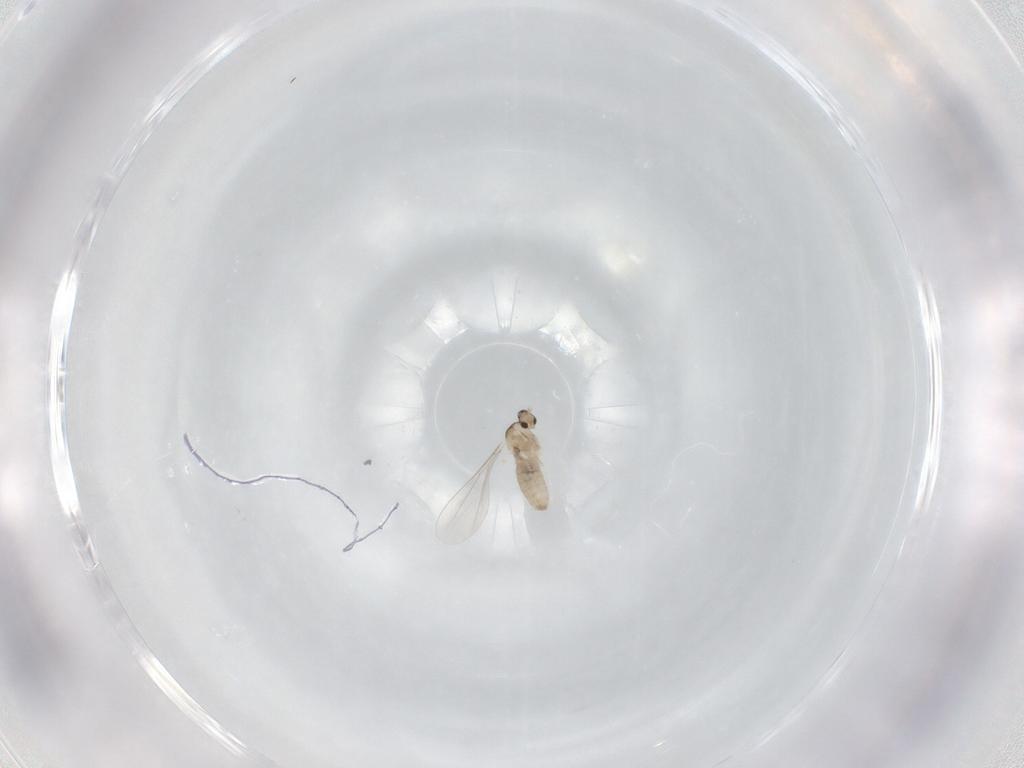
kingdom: Animalia
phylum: Arthropoda
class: Insecta
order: Diptera
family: Cecidomyiidae
